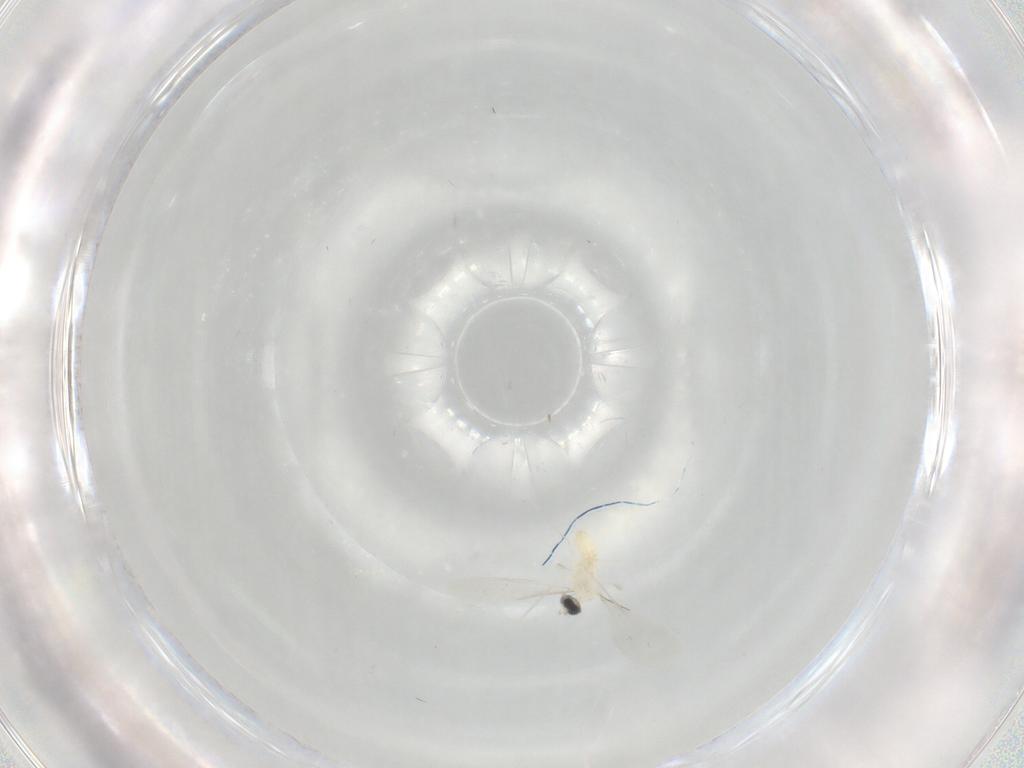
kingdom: Animalia
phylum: Arthropoda
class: Insecta
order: Diptera
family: Cecidomyiidae
